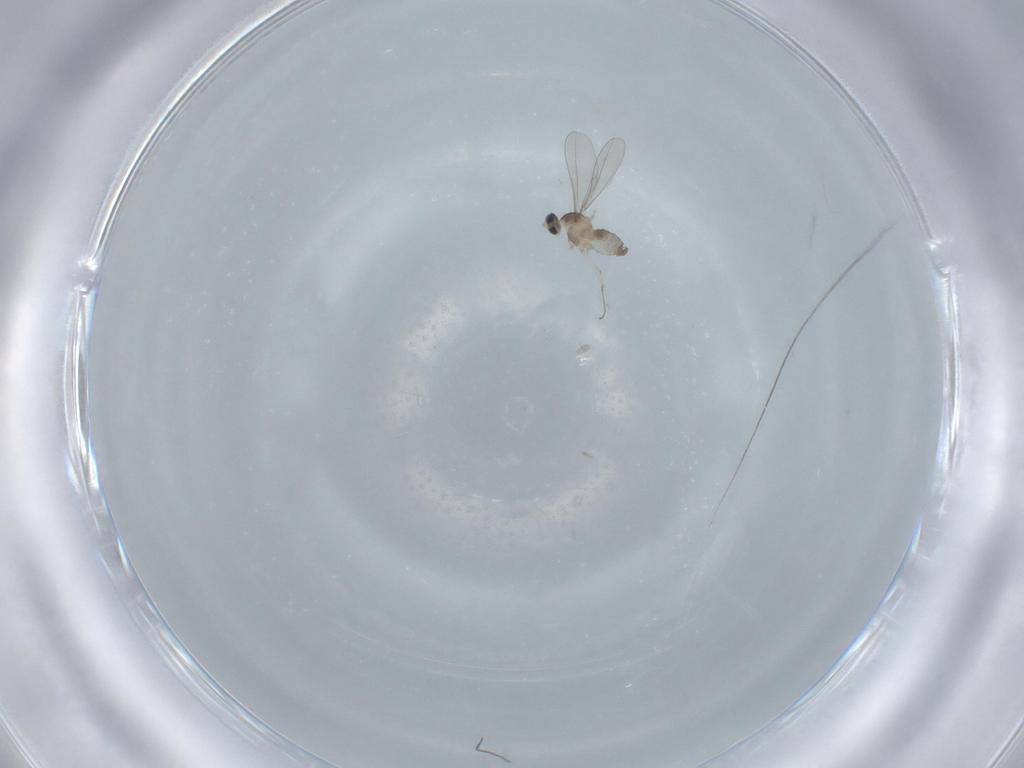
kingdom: Animalia
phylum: Arthropoda
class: Insecta
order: Diptera
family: Cecidomyiidae
